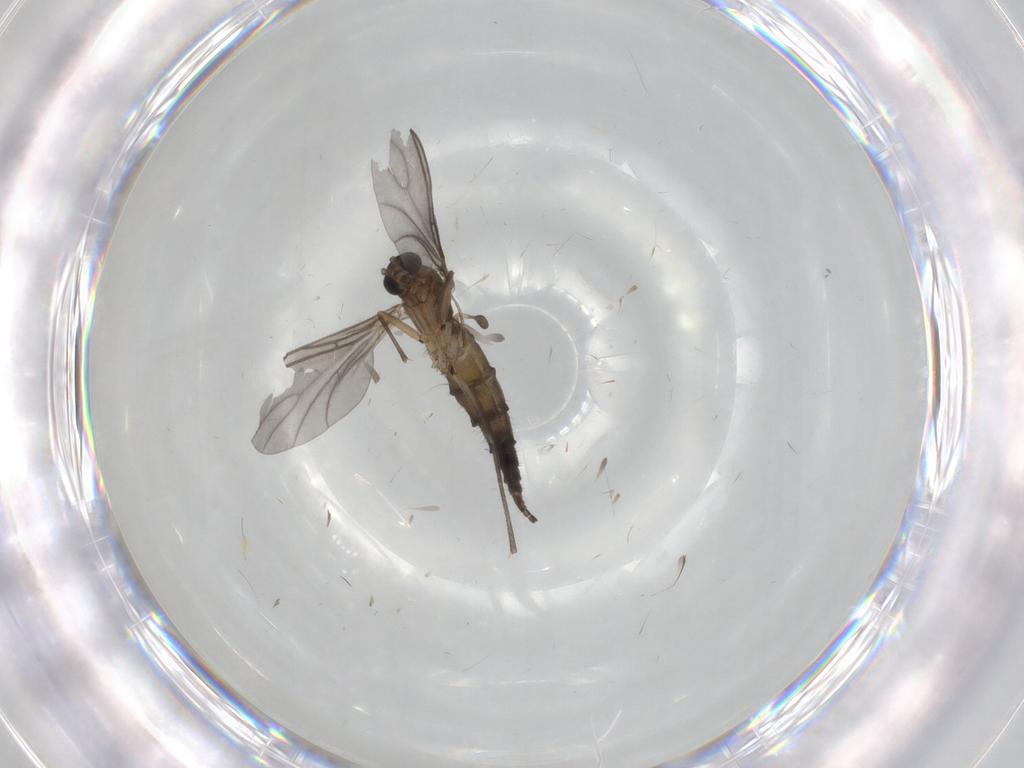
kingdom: Animalia
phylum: Arthropoda
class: Insecta
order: Diptera
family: Sciaridae
